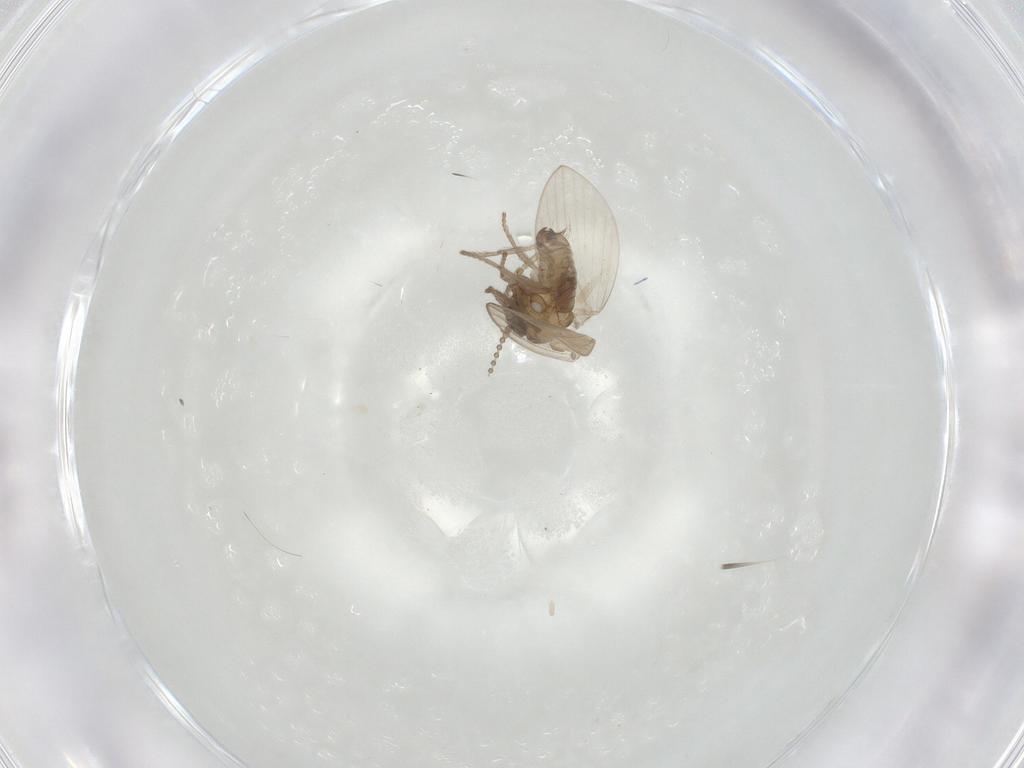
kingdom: Animalia
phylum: Arthropoda
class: Insecta
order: Diptera
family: Psychodidae
